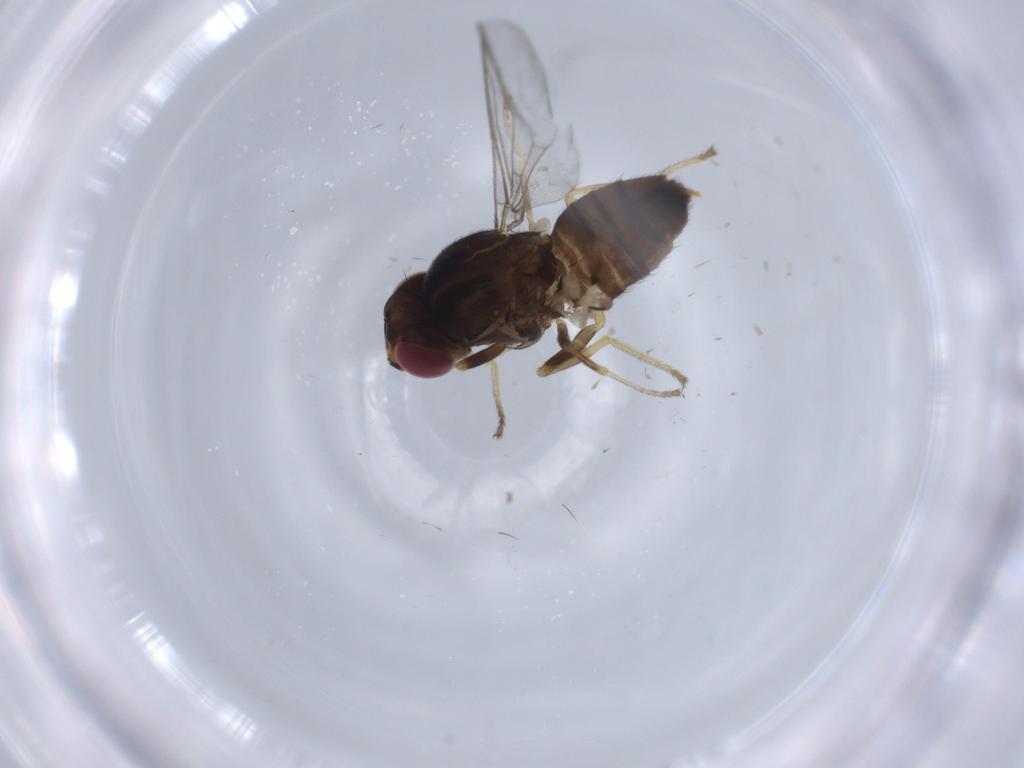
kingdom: Animalia
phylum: Arthropoda
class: Insecta
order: Diptera
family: Chloropidae
